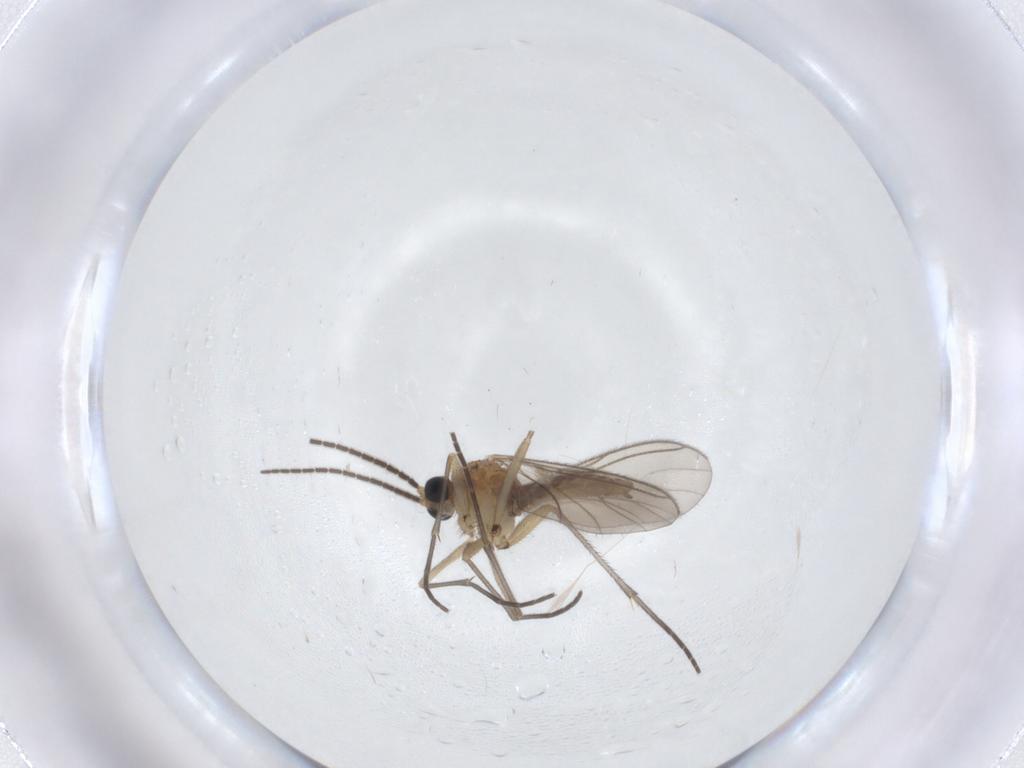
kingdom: Animalia
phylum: Arthropoda
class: Insecta
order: Diptera
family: Sciaridae
